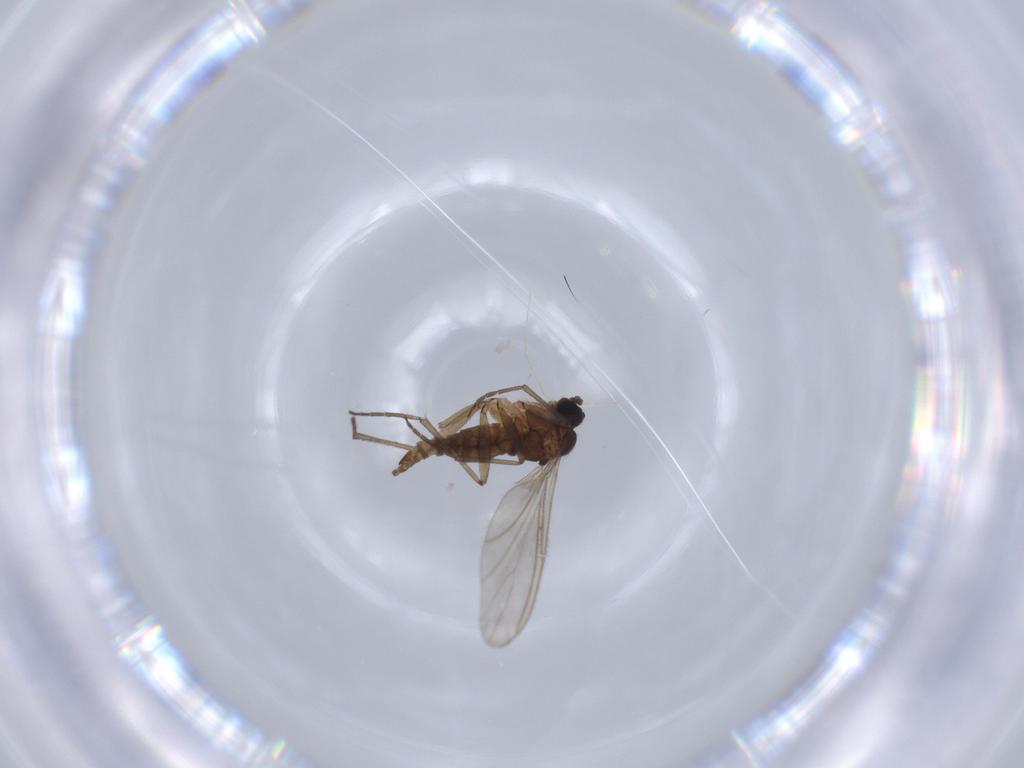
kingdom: Animalia
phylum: Arthropoda
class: Insecta
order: Diptera
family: Sciaridae
